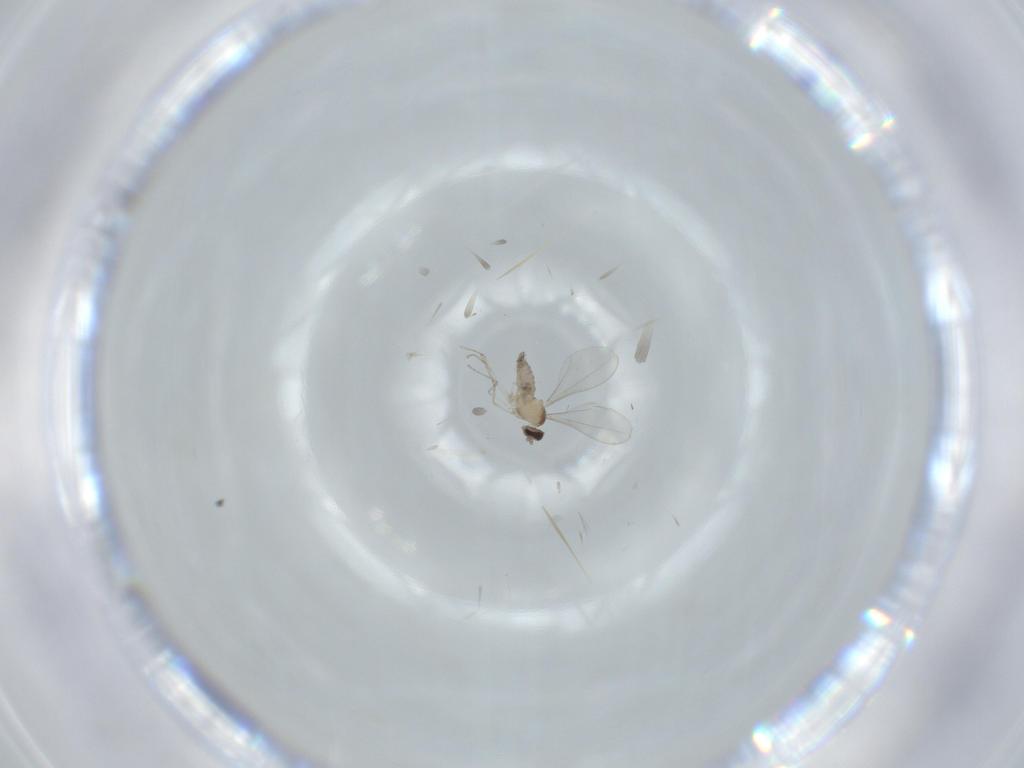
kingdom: Animalia
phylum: Arthropoda
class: Insecta
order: Diptera
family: Cecidomyiidae
